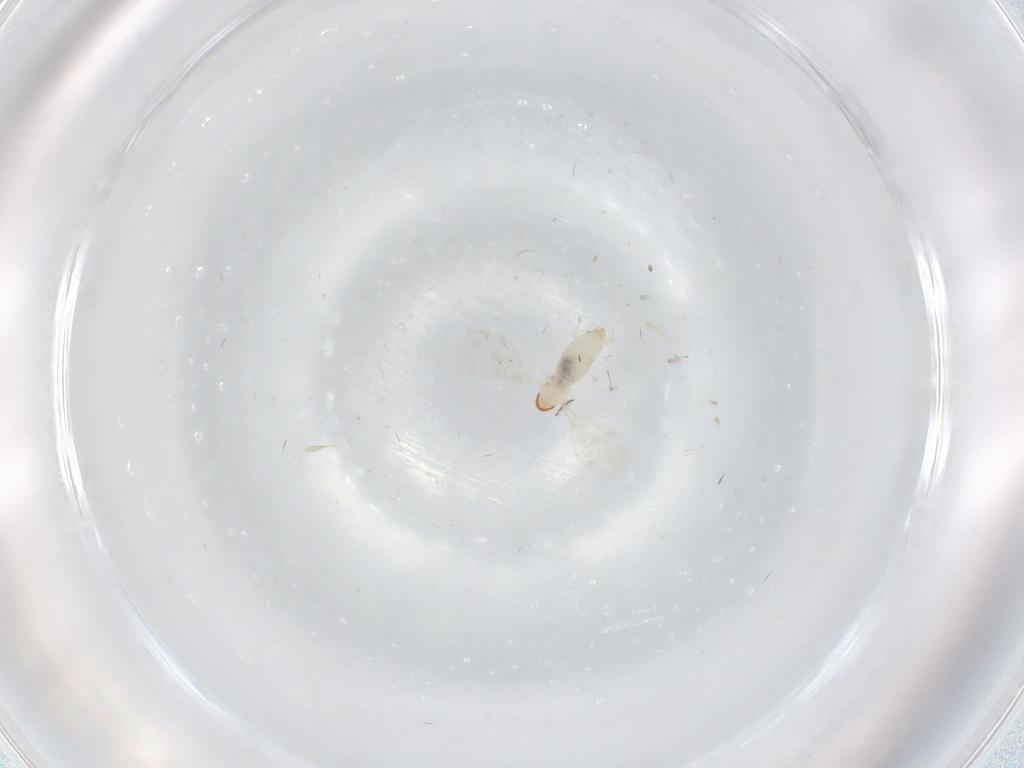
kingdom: Animalia
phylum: Arthropoda
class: Insecta
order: Diptera
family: Cecidomyiidae
